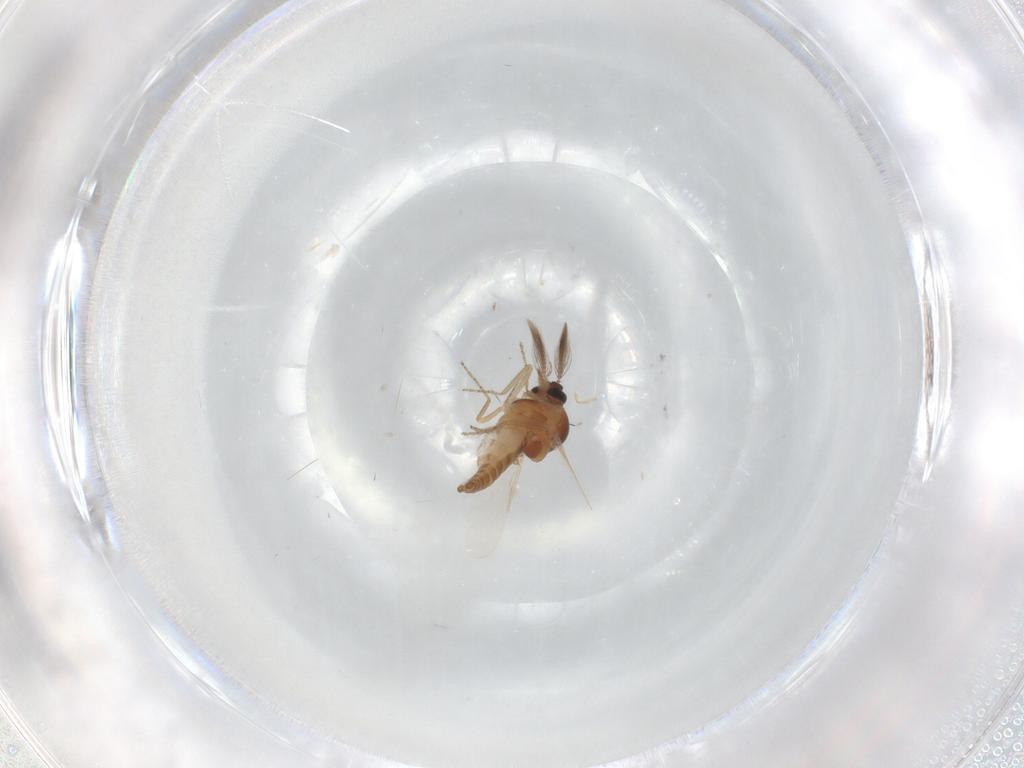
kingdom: Animalia
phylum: Arthropoda
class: Insecta
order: Diptera
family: Ceratopogonidae
